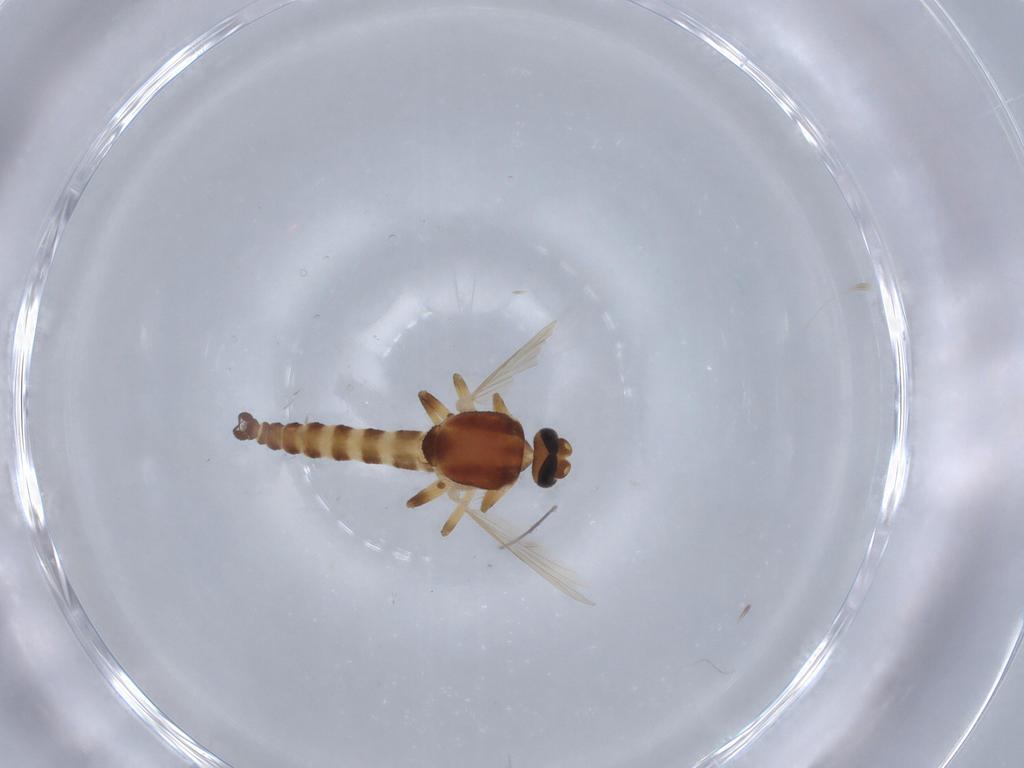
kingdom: Animalia
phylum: Arthropoda
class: Insecta
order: Diptera
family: Ceratopogonidae
